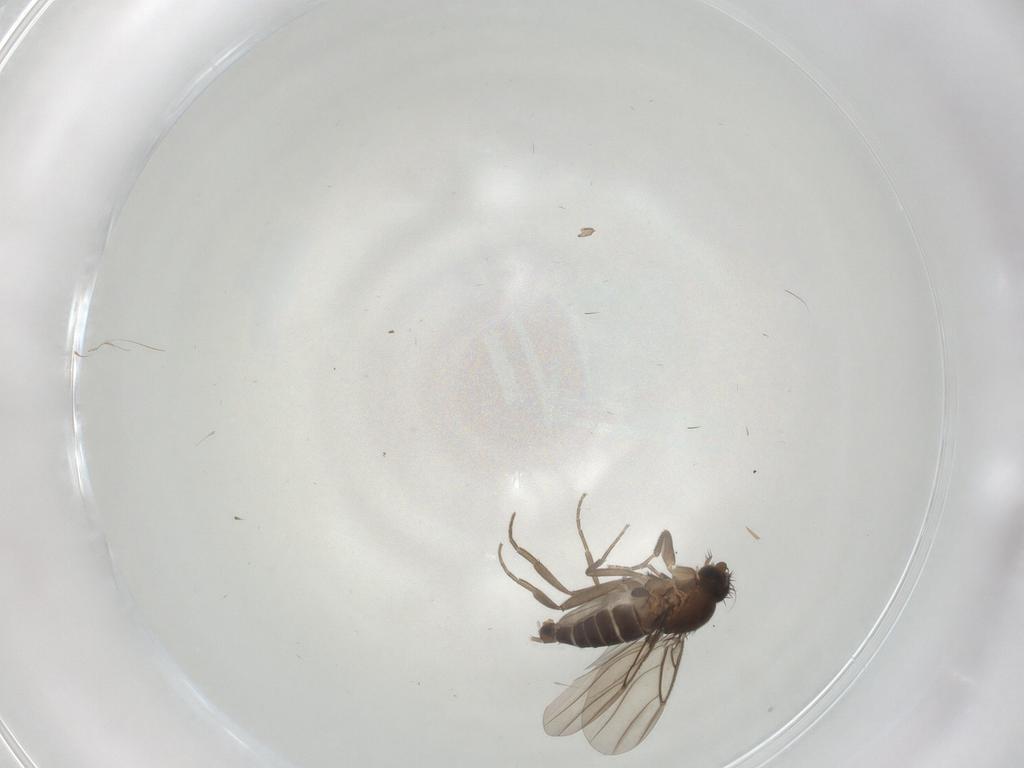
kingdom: Animalia
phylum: Arthropoda
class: Insecta
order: Diptera
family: Phoridae
